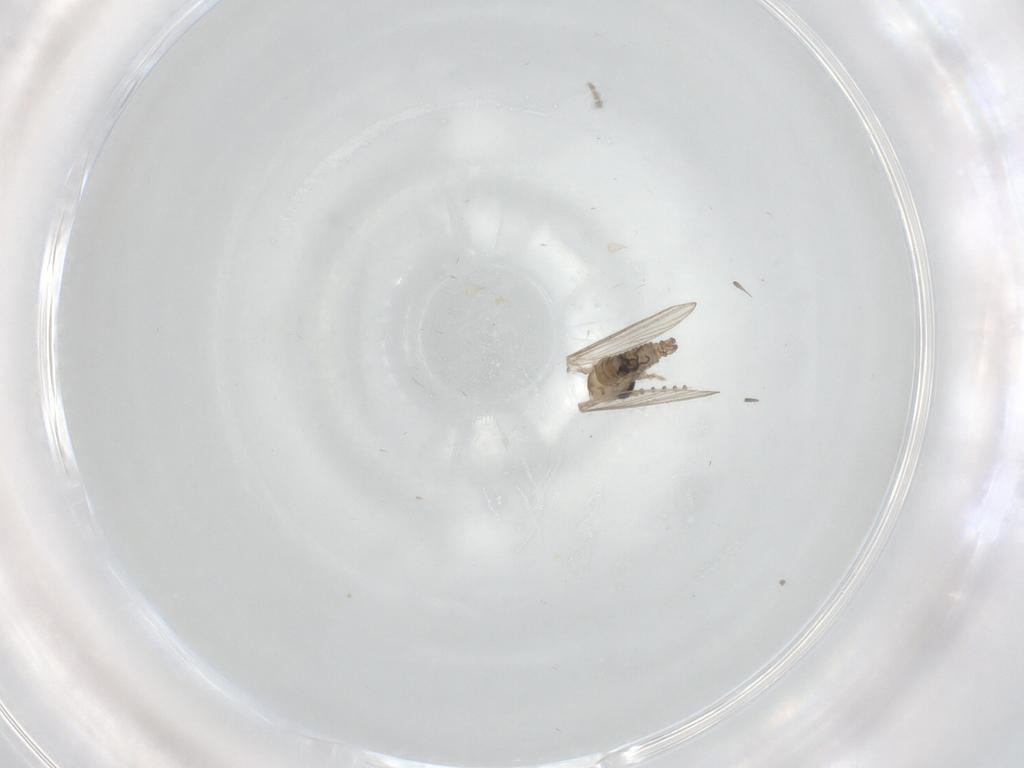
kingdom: Animalia
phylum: Arthropoda
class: Insecta
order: Diptera
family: Psychodidae
